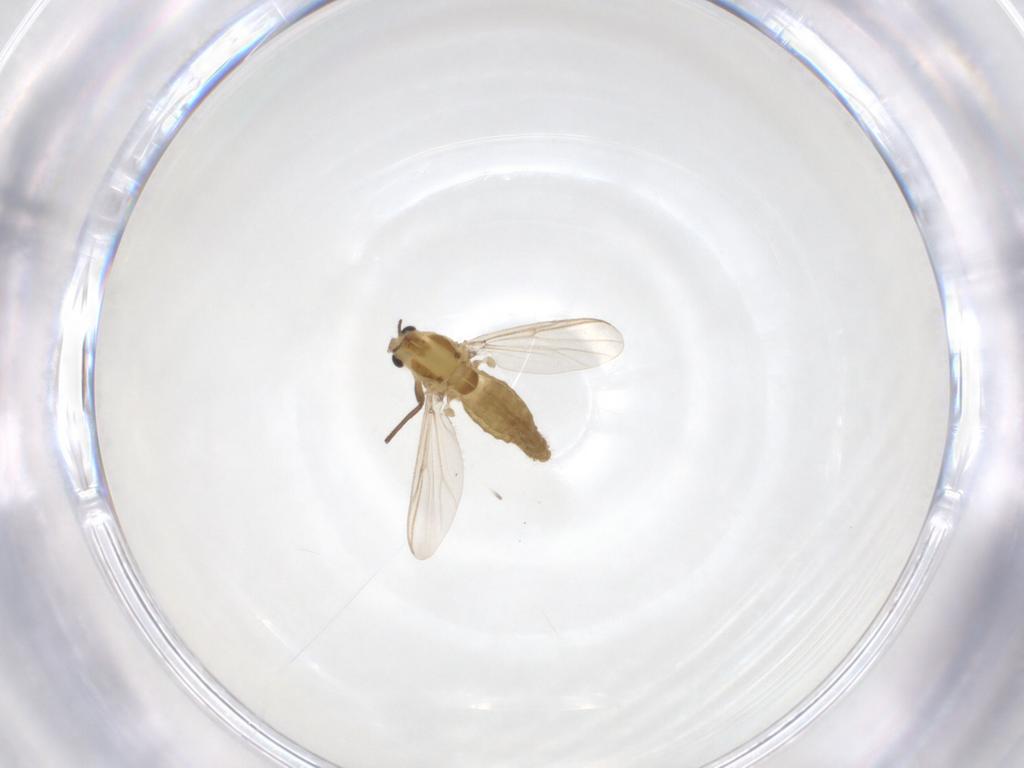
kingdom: Animalia
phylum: Arthropoda
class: Insecta
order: Diptera
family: Chironomidae
